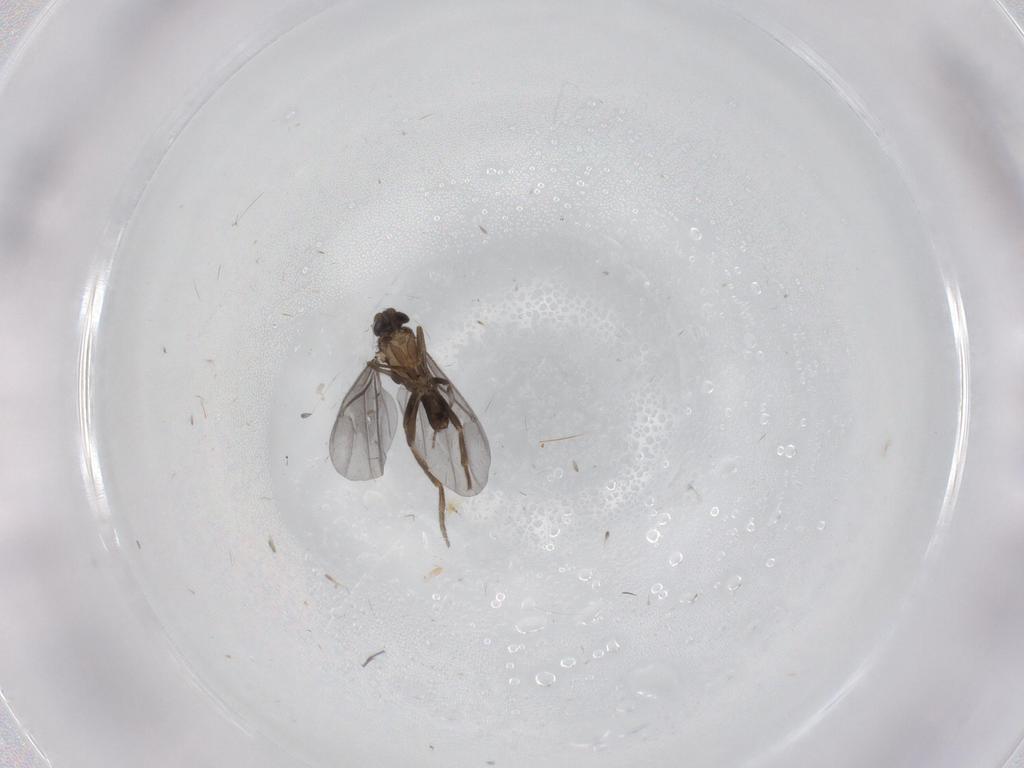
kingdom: Animalia
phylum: Arthropoda
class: Insecta
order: Diptera
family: Phoridae
